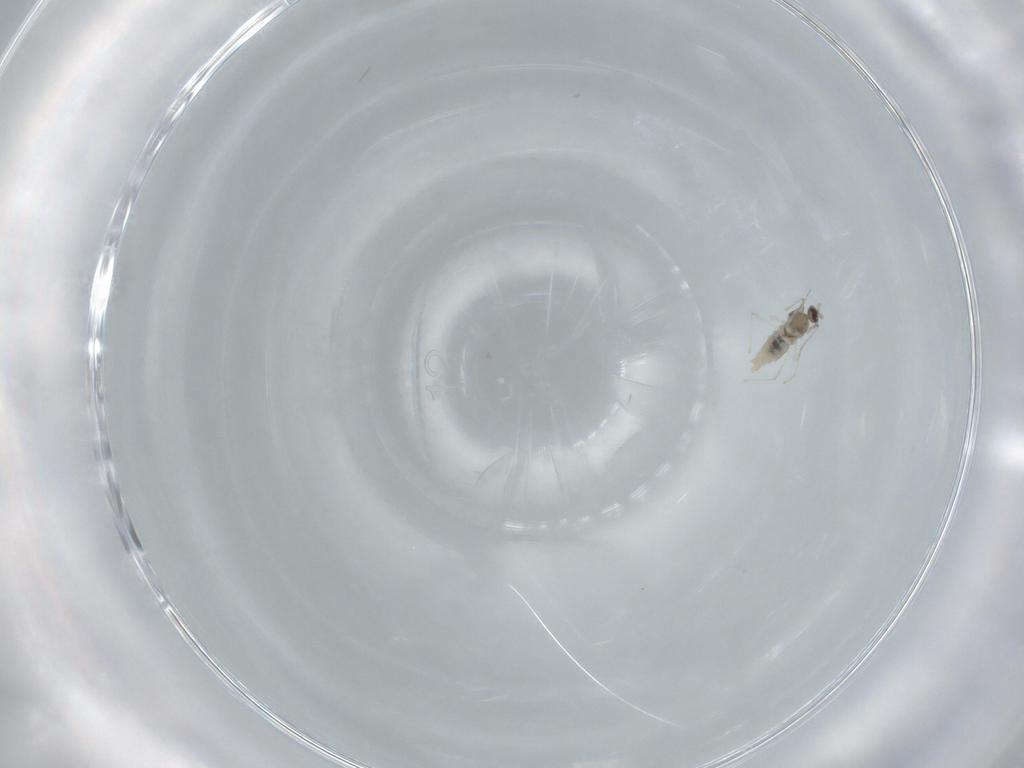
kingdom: Animalia
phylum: Arthropoda
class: Insecta
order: Diptera
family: Cecidomyiidae
